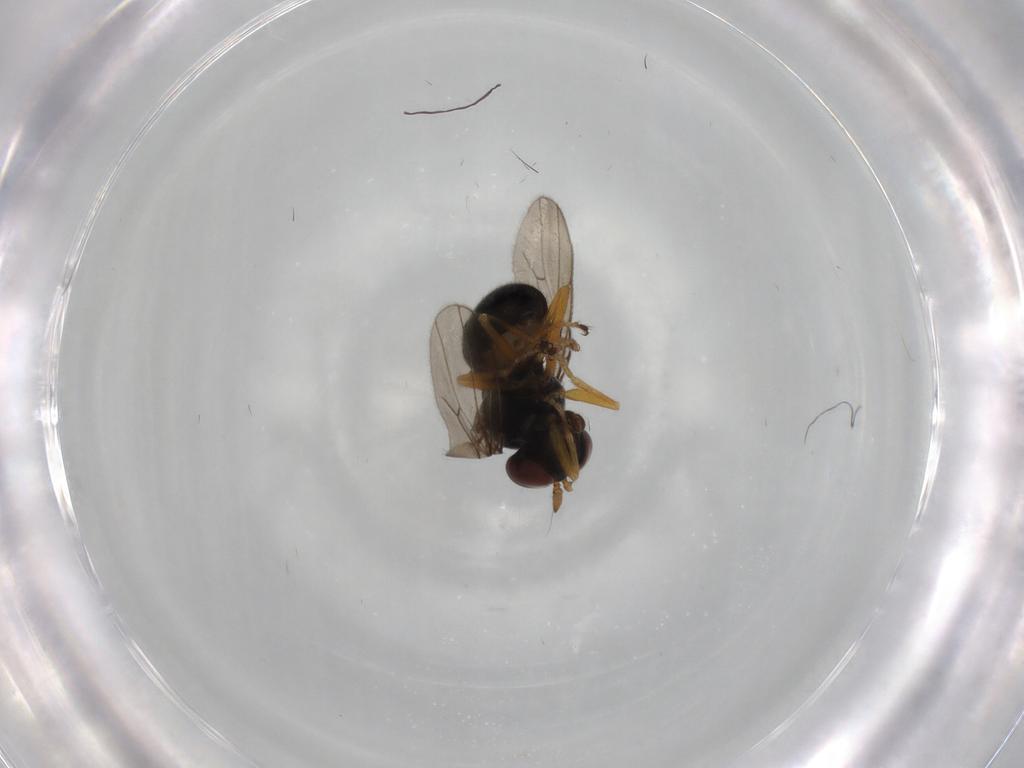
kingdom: Animalia
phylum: Arthropoda
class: Insecta
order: Diptera
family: Ephydridae
